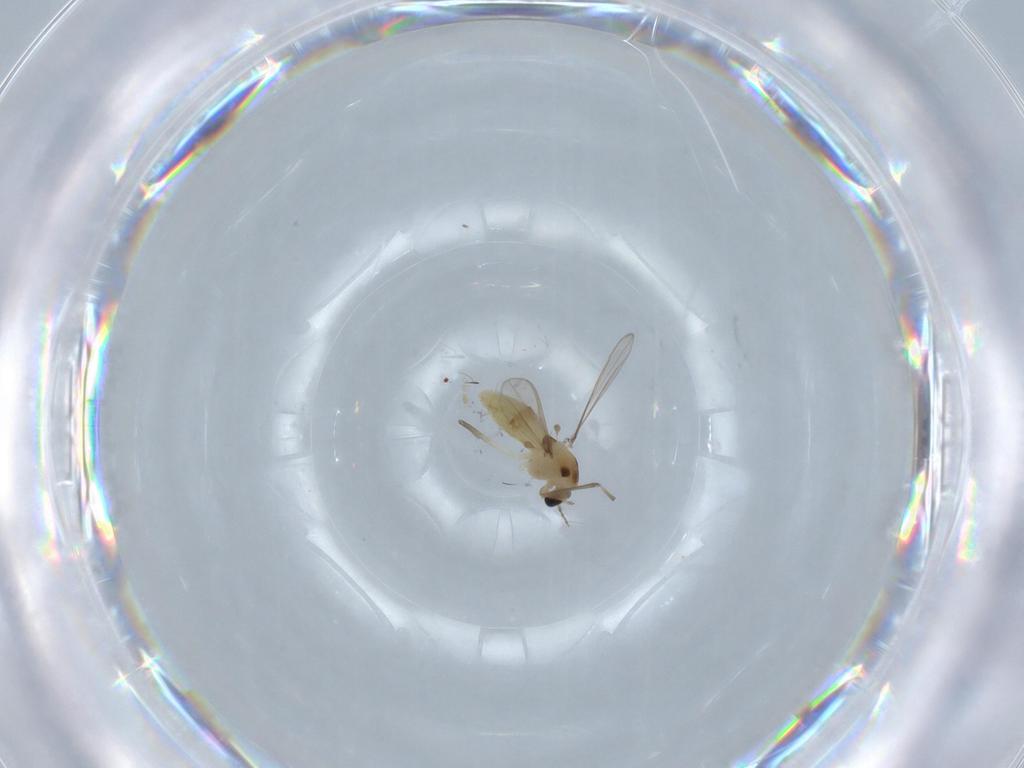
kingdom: Animalia
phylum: Arthropoda
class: Insecta
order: Diptera
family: Chironomidae
